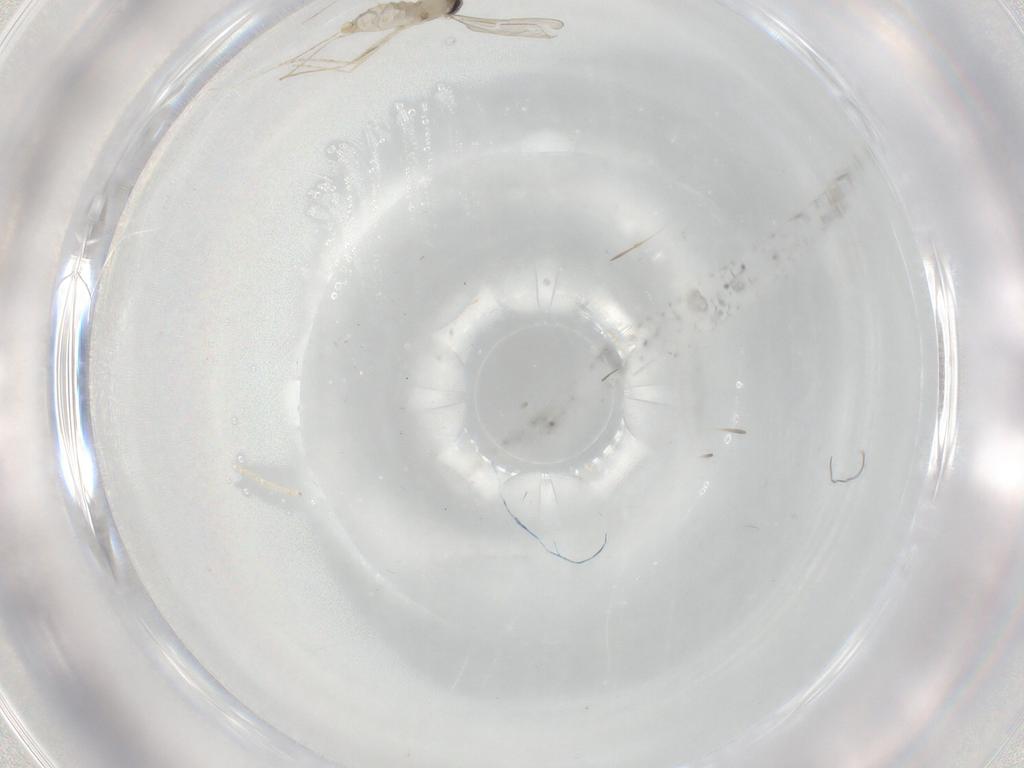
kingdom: Animalia
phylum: Arthropoda
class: Insecta
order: Diptera
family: Cecidomyiidae
